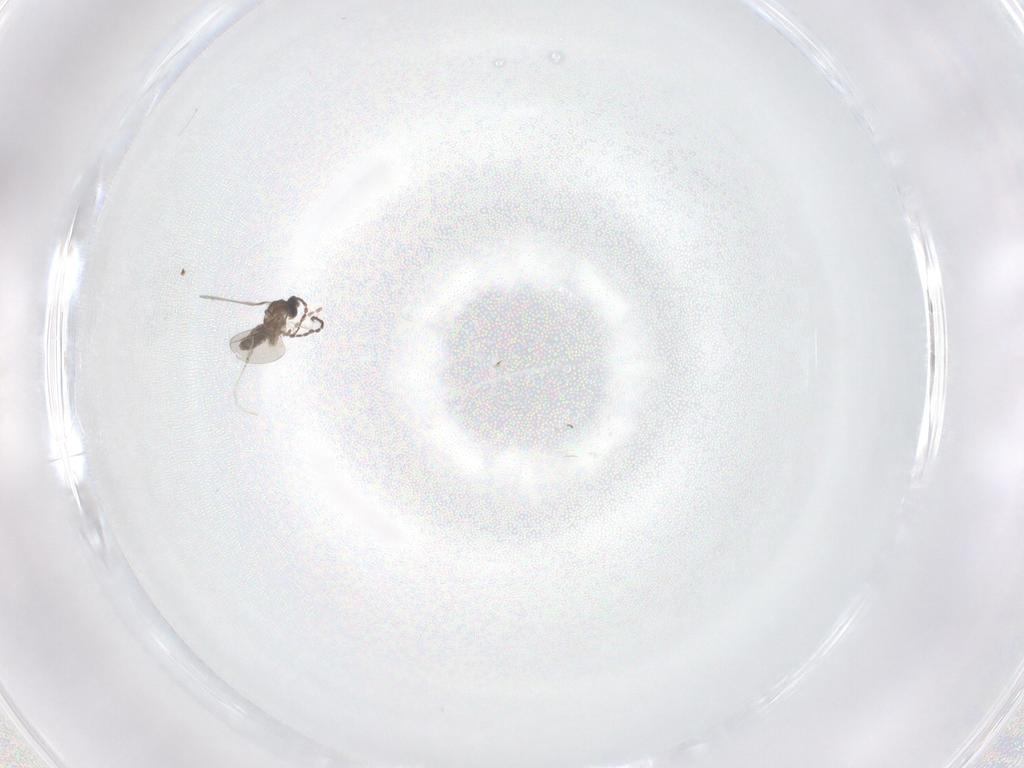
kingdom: Animalia
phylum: Arthropoda
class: Insecta
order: Diptera
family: Cecidomyiidae
